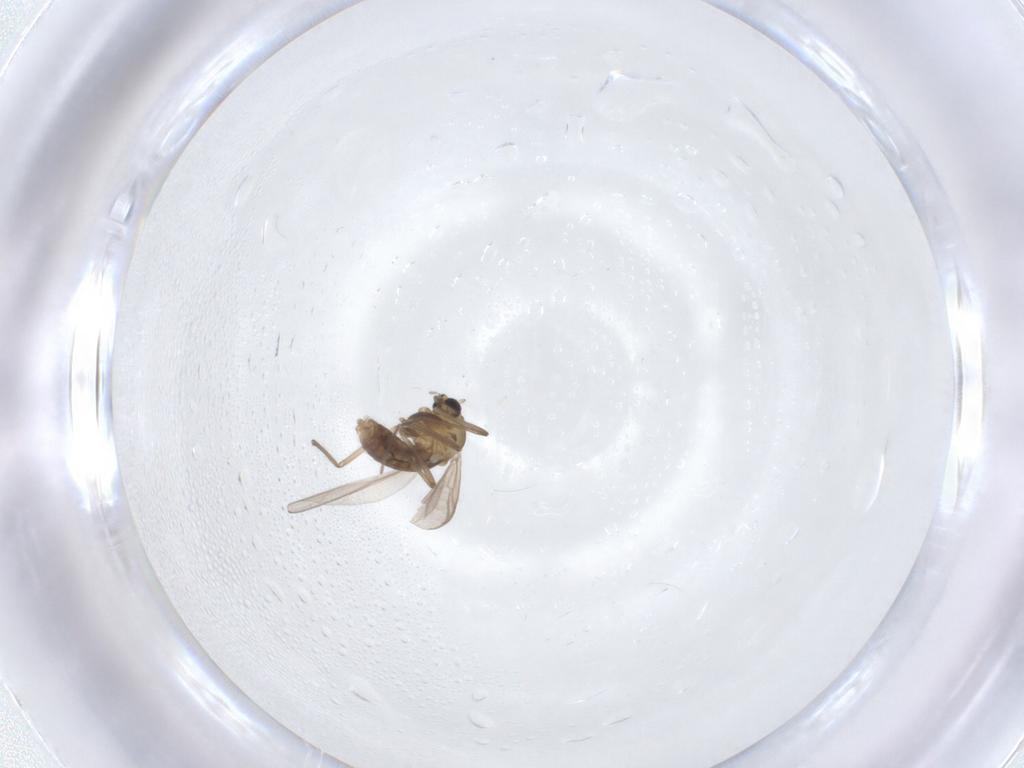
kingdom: Animalia
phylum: Arthropoda
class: Insecta
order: Diptera
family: Chironomidae
